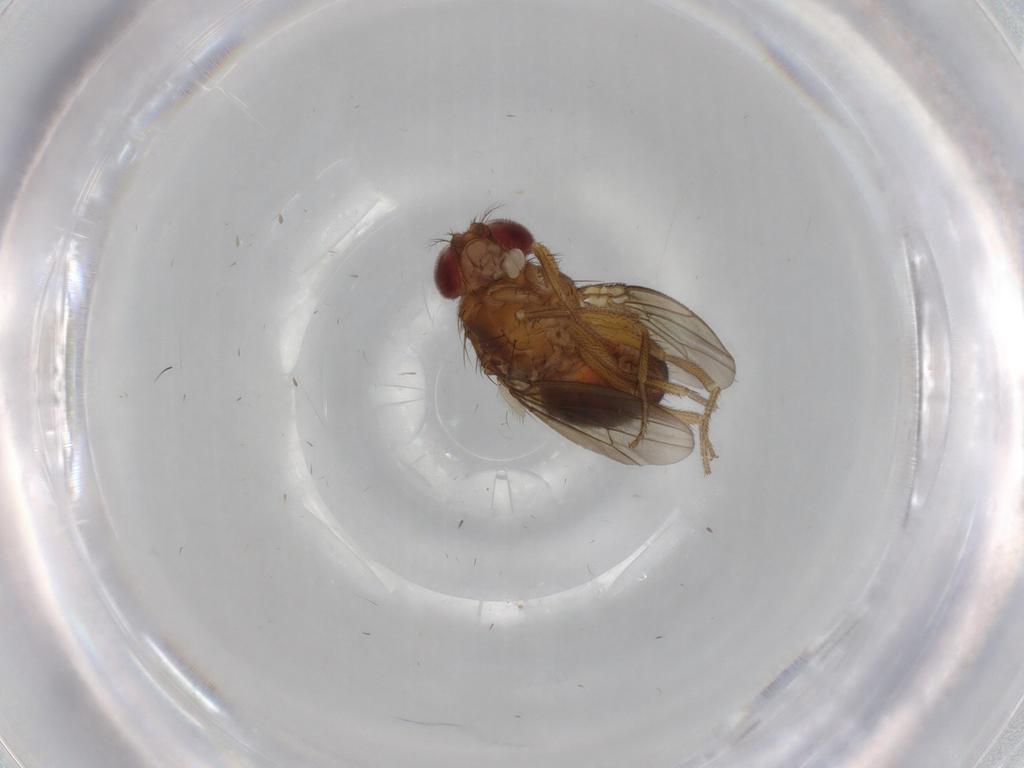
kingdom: Animalia
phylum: Arthropoda
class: Insecta
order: Diptera
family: Drosophilidae
